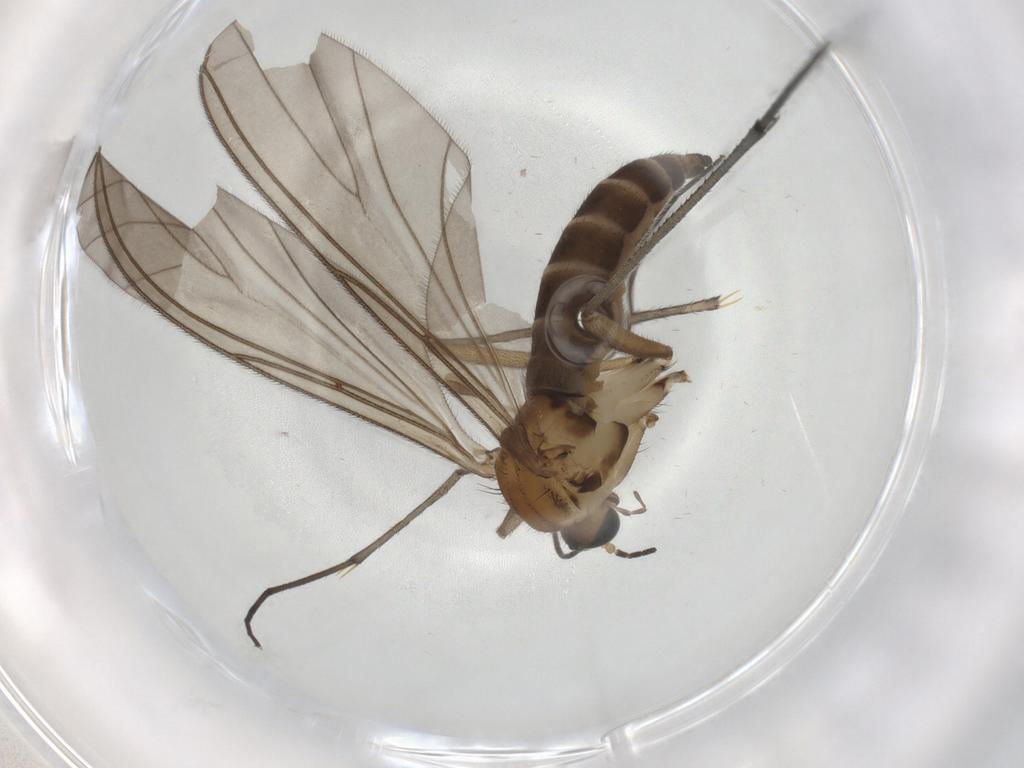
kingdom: Animalia
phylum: Arthropoda
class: Insecta
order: Diptera
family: Sciaridae
